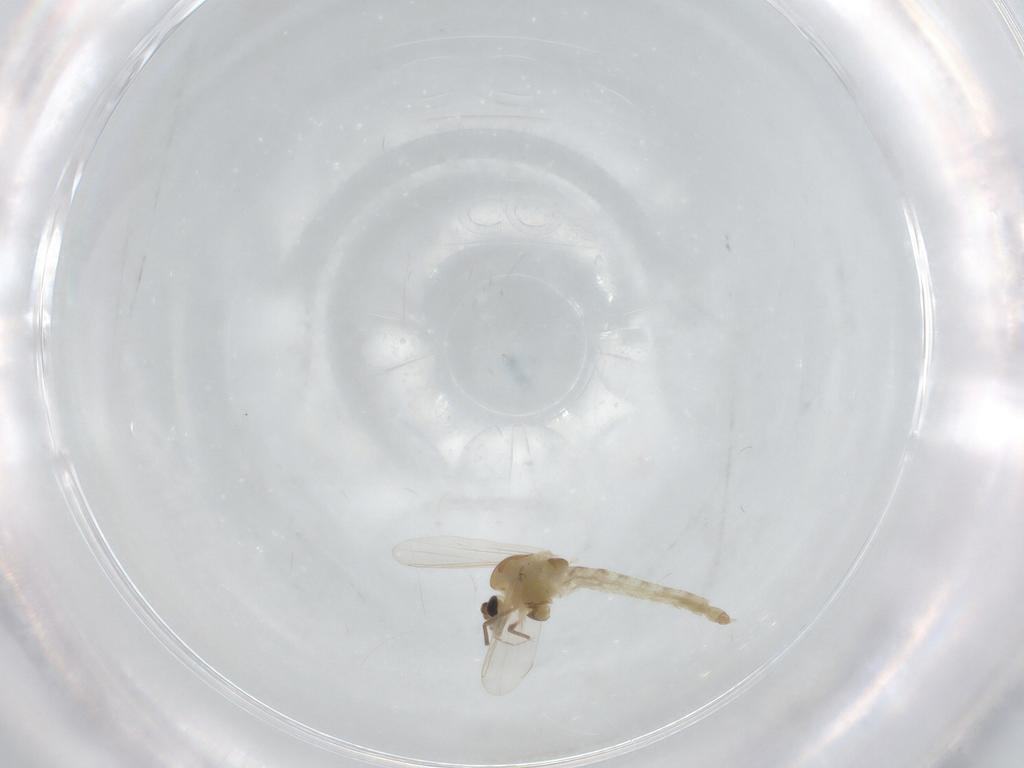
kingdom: Animalia
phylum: Arthropoda
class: Insecta
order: Diptera
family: Chironomidae
